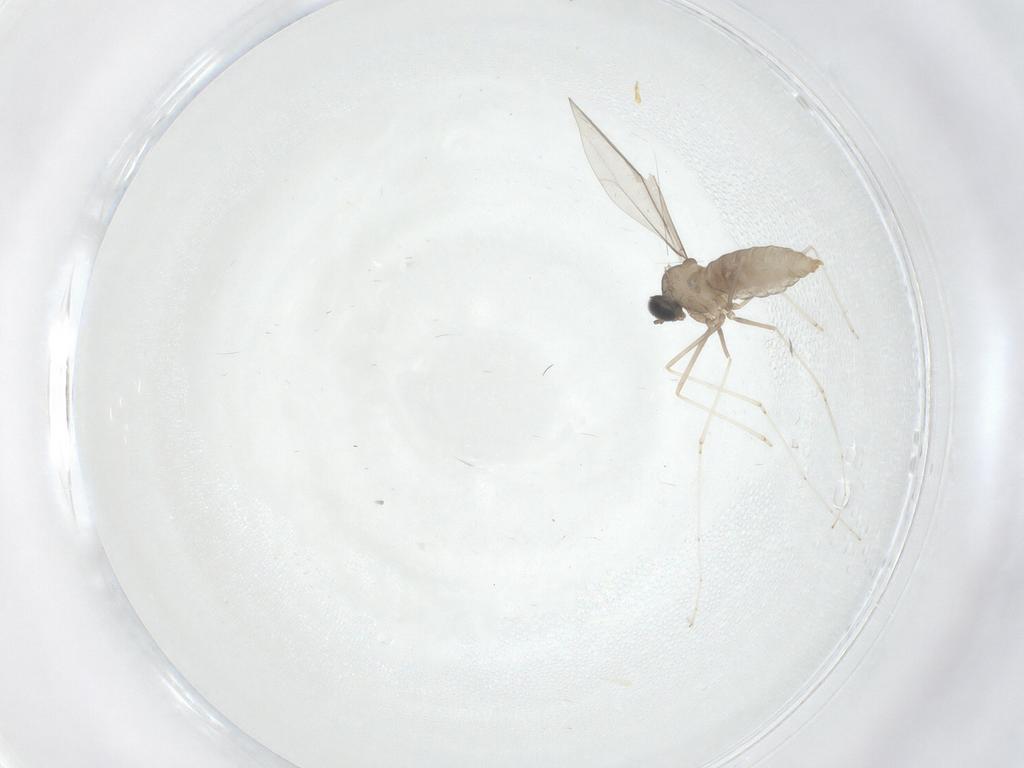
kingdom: Animalia
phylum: Arthropoda
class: Insecta
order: Diptera
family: Cecidomyiidae
